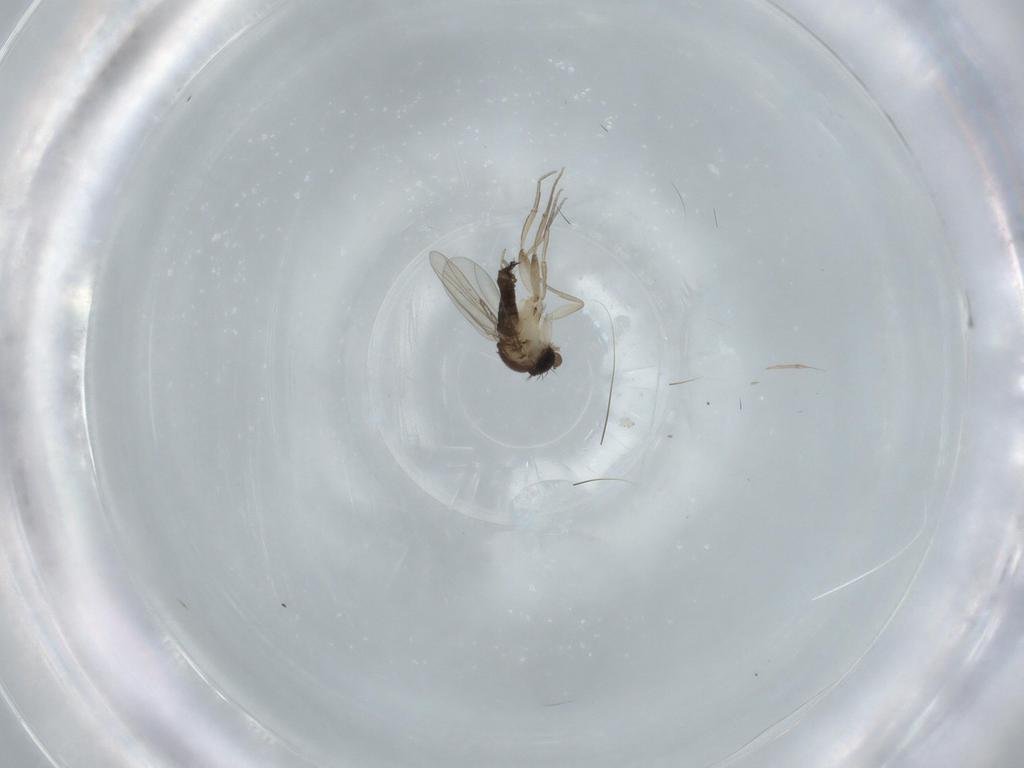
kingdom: Animalia
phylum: Arthropoda
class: Insecta
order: Diptera
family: Phoridae
